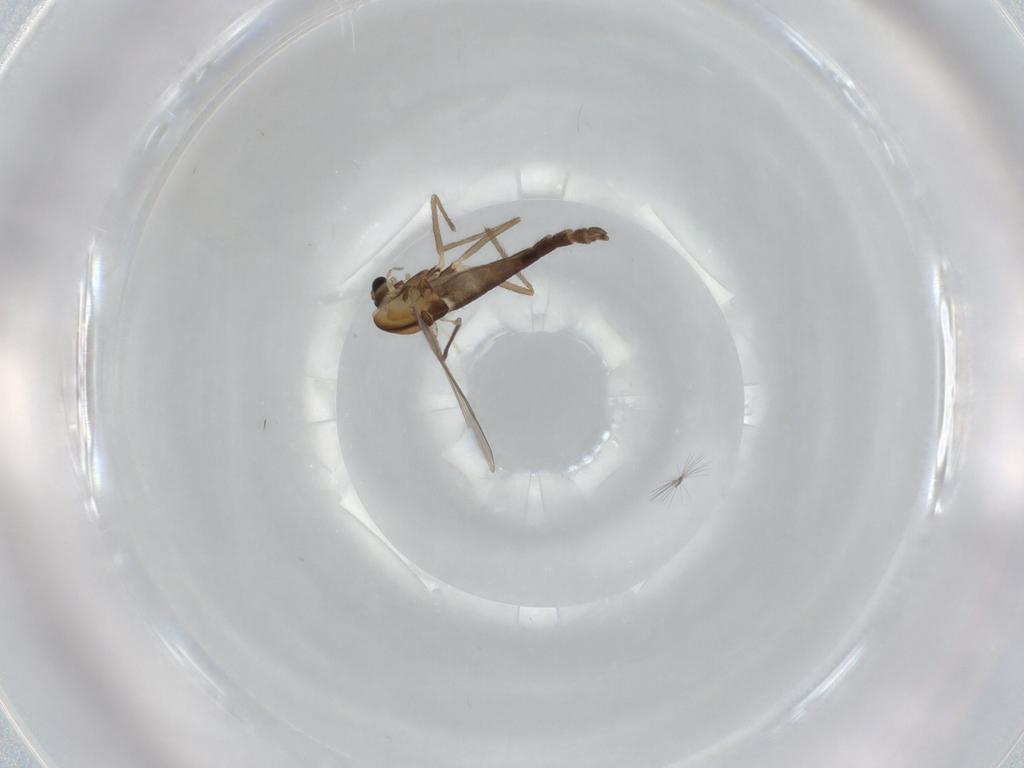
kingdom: Animalia
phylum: Arthropoda
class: Insecta
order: Diptera
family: Chironomidae
